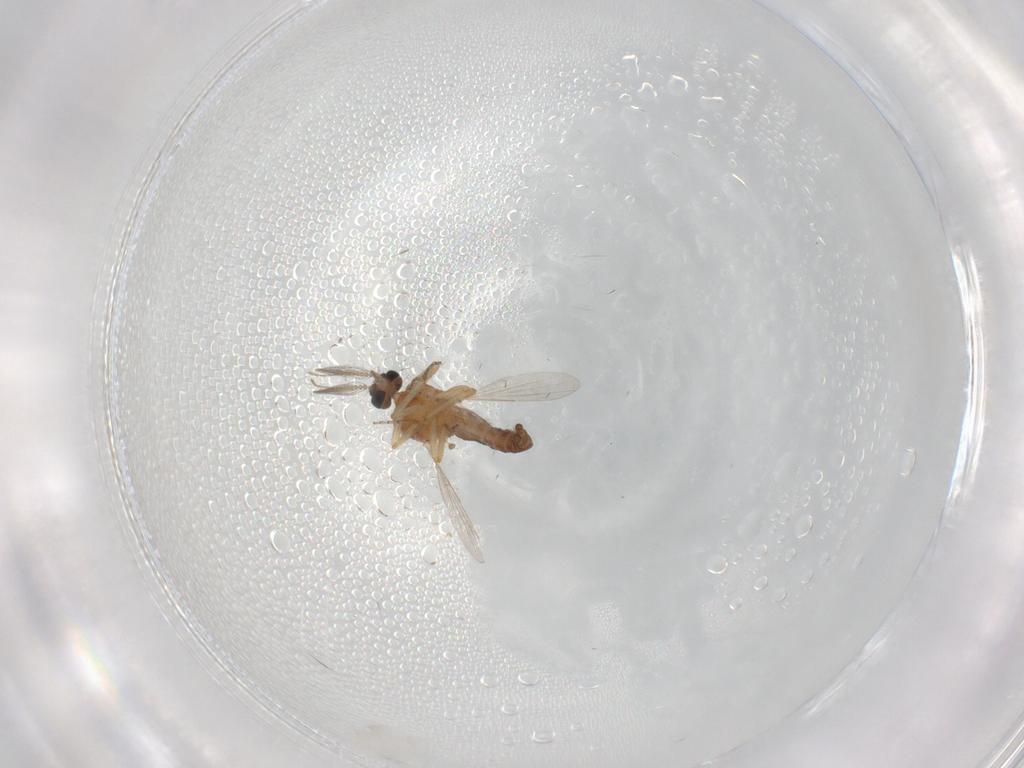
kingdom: Animalia
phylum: Arthropoda
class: Insecta
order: Diptera
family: Ceratopogonidae
